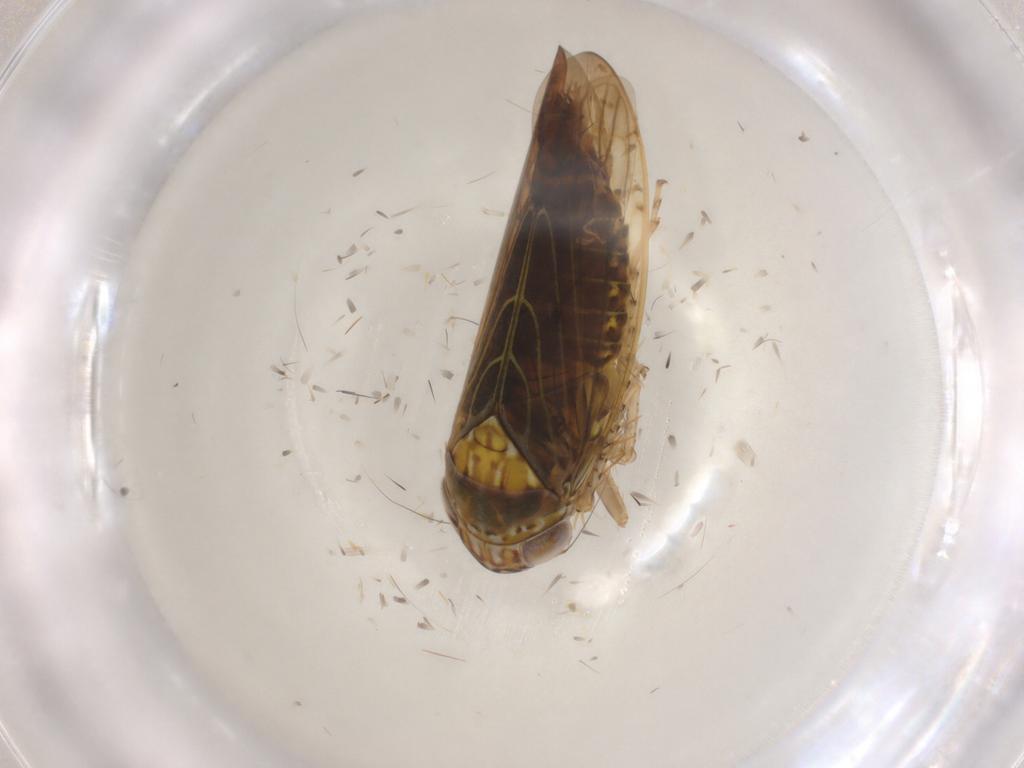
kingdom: Animalia
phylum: Arthropoda
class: Insecta
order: Hemiptera
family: Cicadellidae
